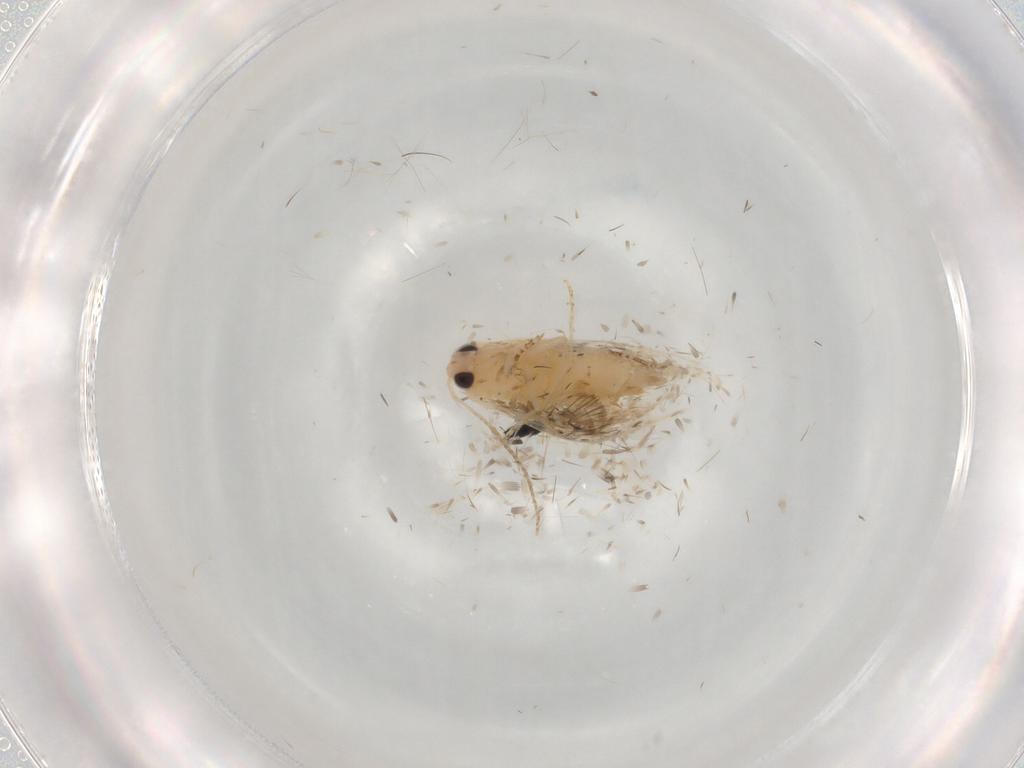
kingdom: Animalia
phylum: Arthropoda
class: Insecta
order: Lepidoptera
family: Bucculatricidae
